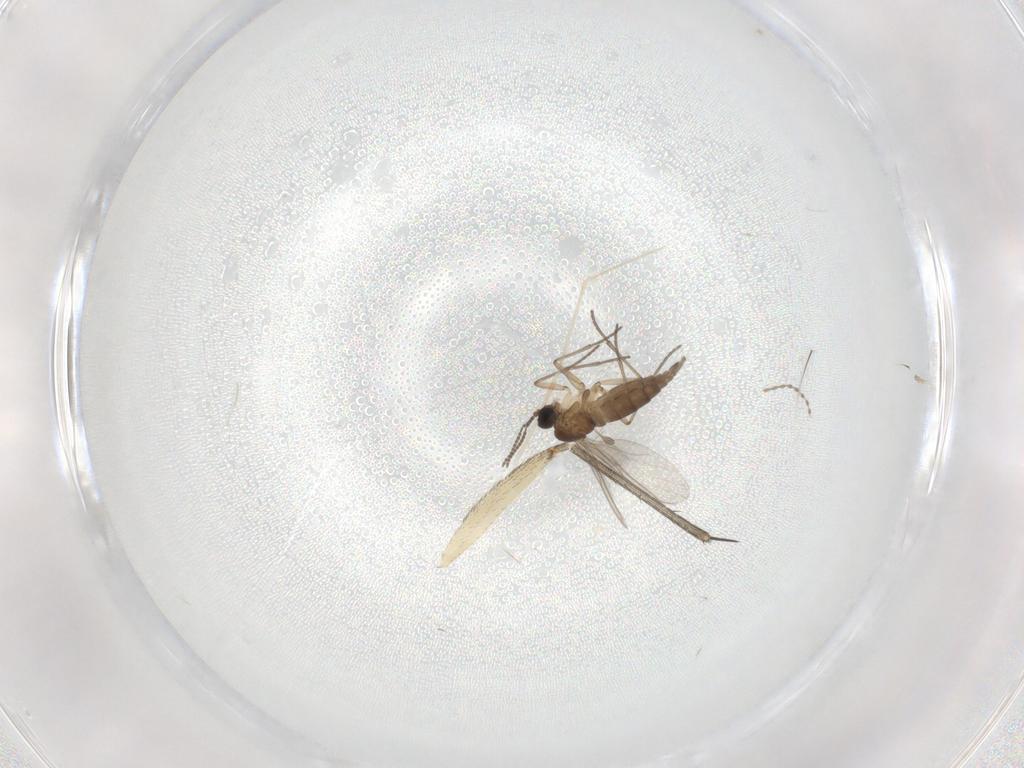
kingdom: Animalia
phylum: Arthropoda
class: Insecta
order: Diptera
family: Mycetophilidae
